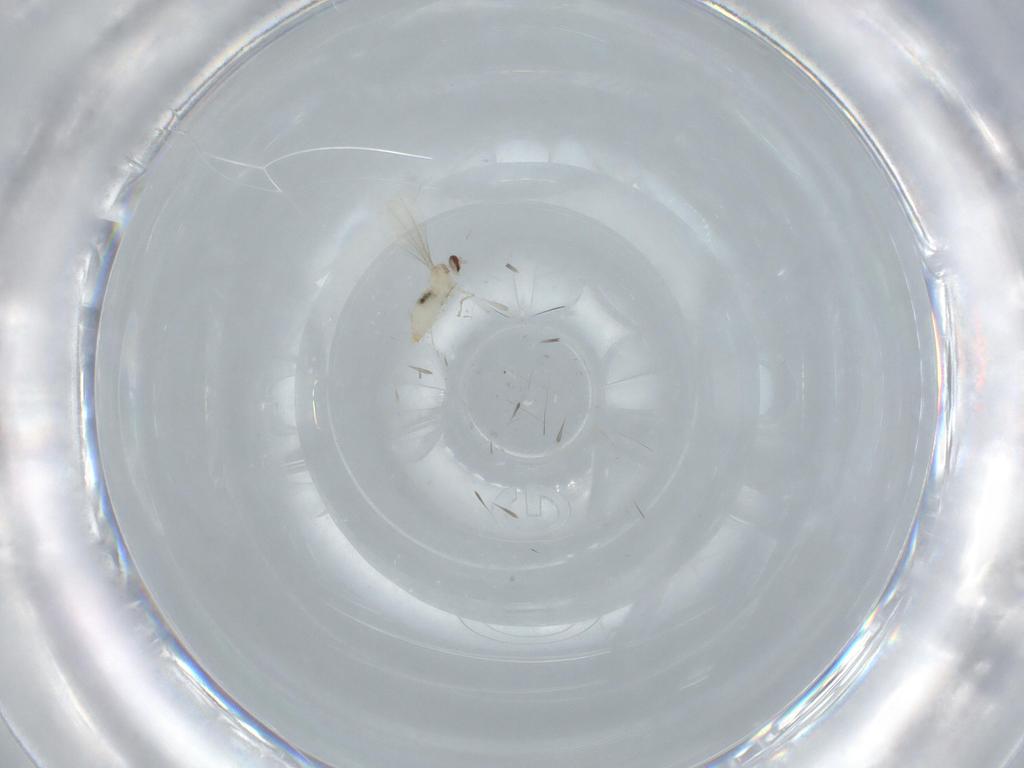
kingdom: Animalia
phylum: Arthropoda
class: Insecta
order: Diptera
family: Cecidomyiidae
